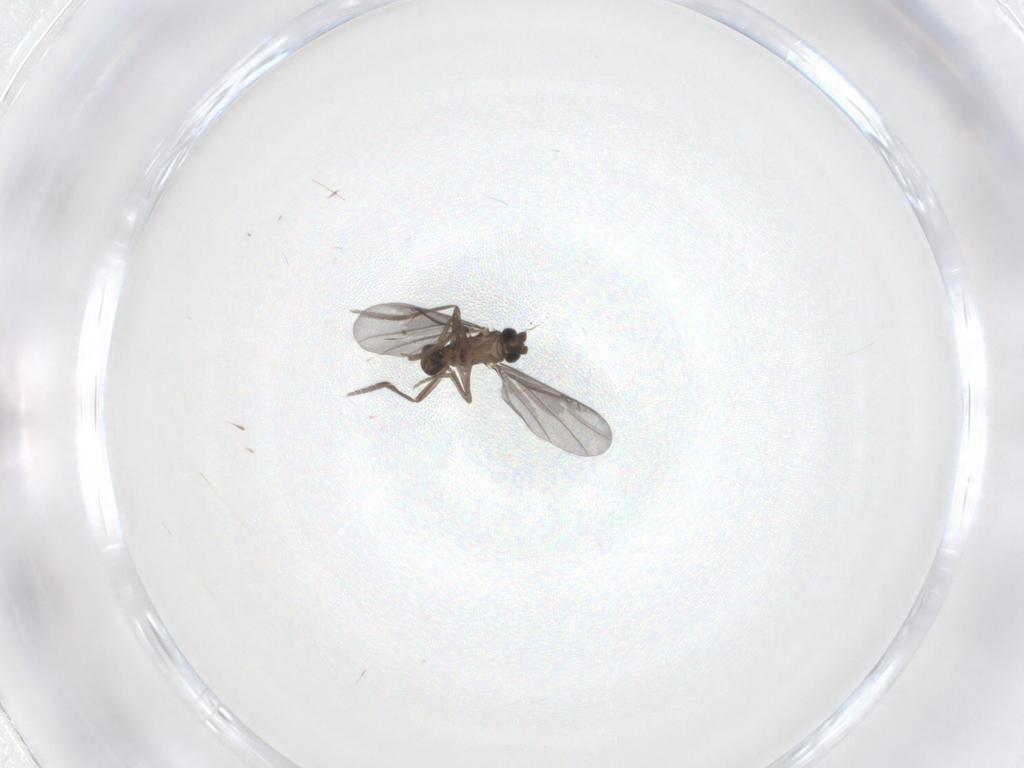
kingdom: Animalia
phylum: Arthropoda
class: Insecta
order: Diptera
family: Phoridae
